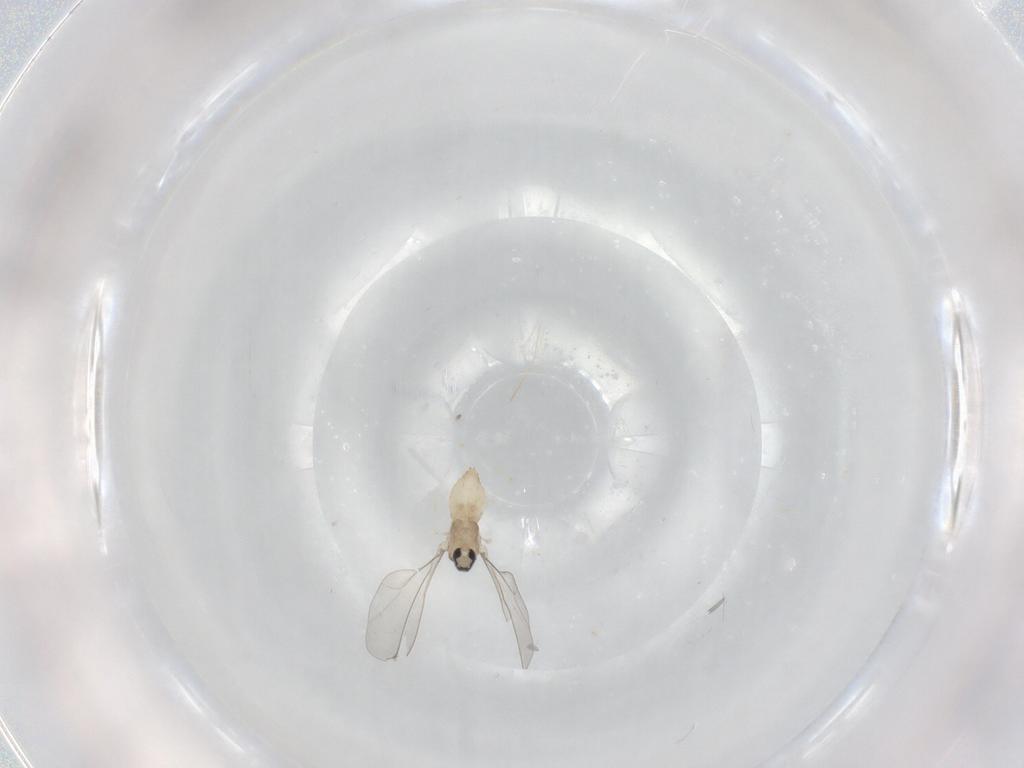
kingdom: Animalia
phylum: Arthropoda
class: Insecta
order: Diptera
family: Cecidomyiidae
